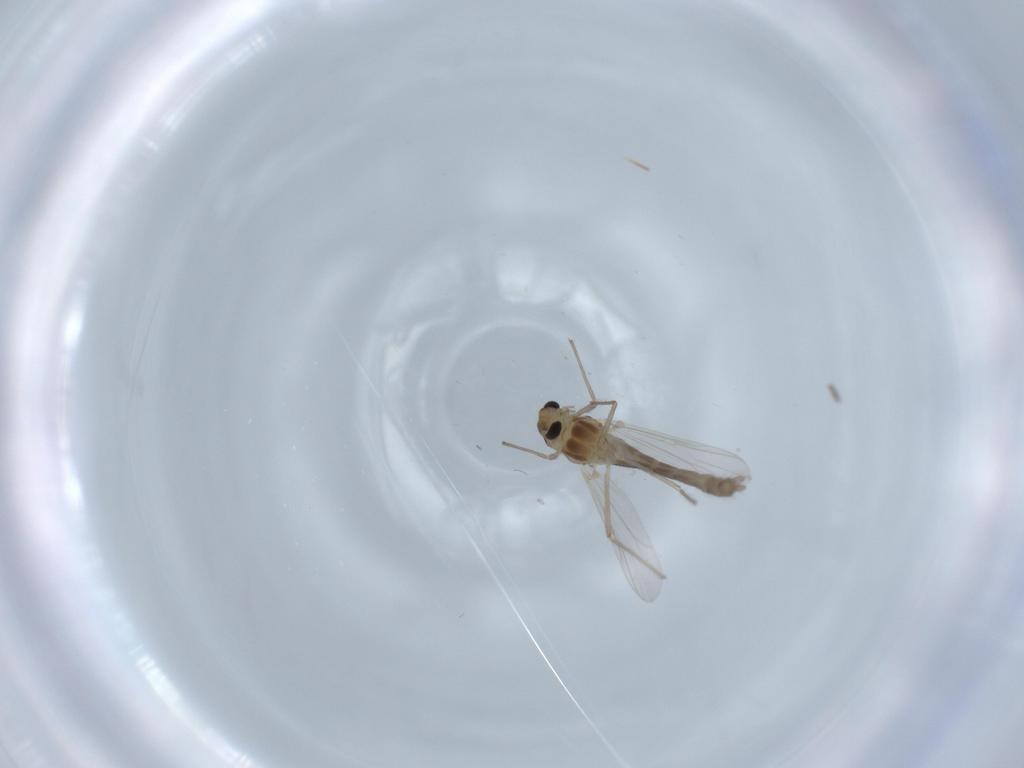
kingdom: Animalia
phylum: Arthropoda
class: Insecta
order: Diptera
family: Chironomidae
